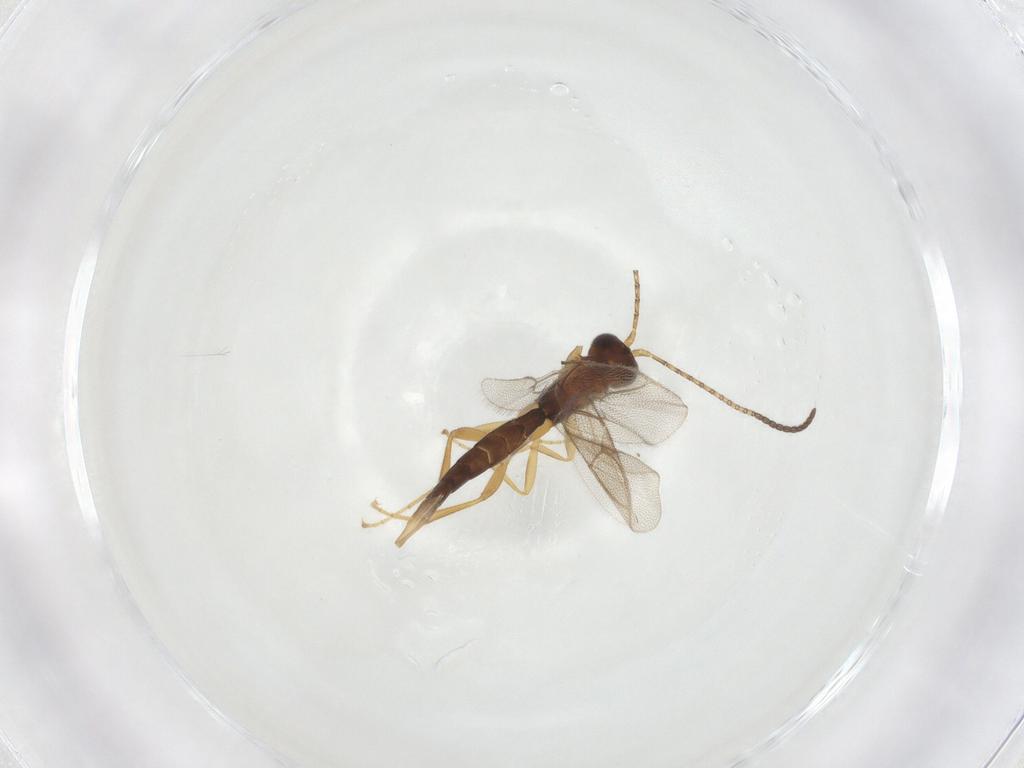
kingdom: Animalia
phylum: Arthropoda
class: Insecta
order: Hymenoptera
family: Ichneumonidae
